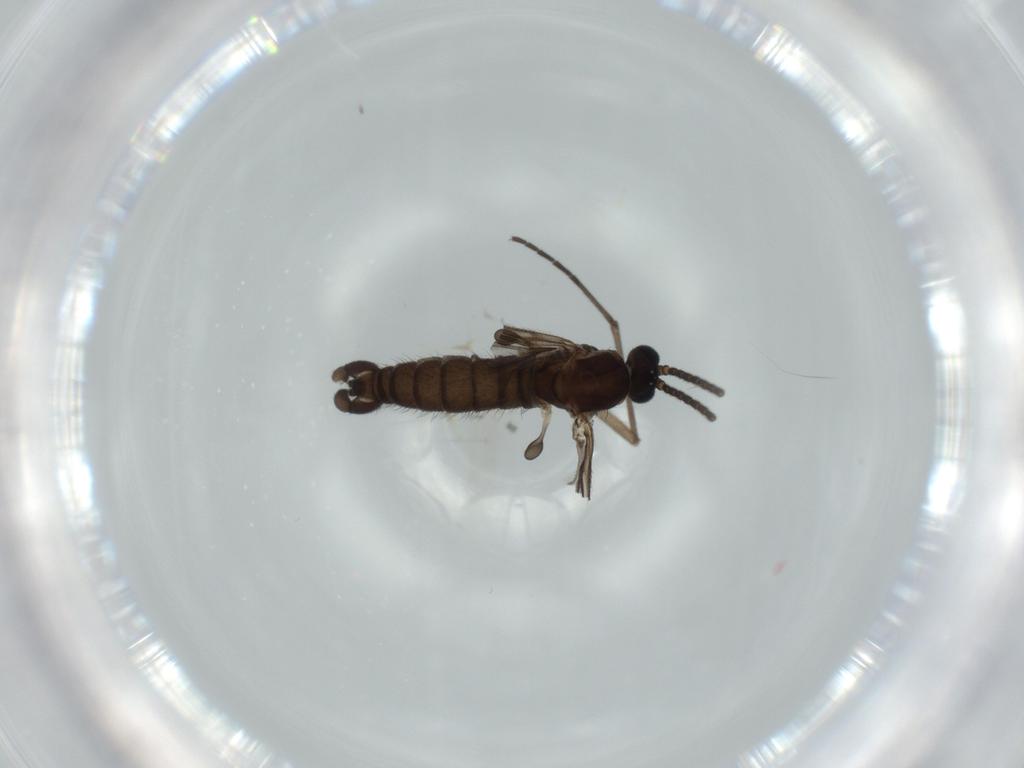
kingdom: Animalia
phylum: Arthropoda
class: Insecta
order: Diptera
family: Sciaridae
